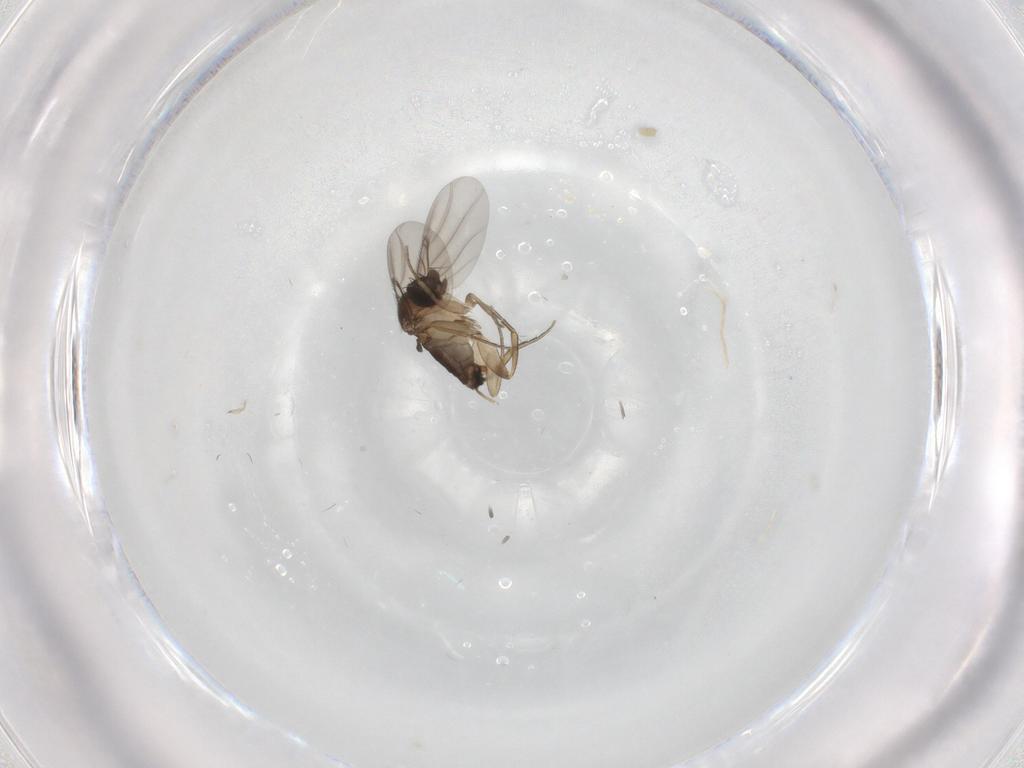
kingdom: Animalia
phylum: Arthropoda
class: Insecta
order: Diptera
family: Phoridae
